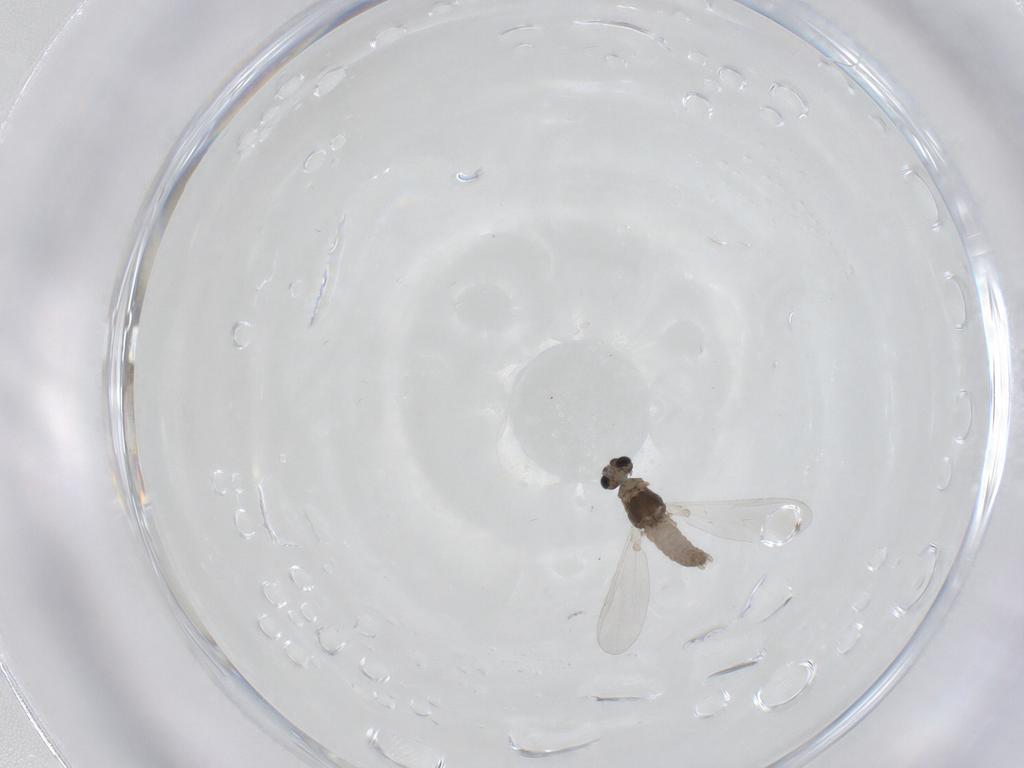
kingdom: Animalia
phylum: Arthropoda
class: Insecta
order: Diptera
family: Chironomidae
